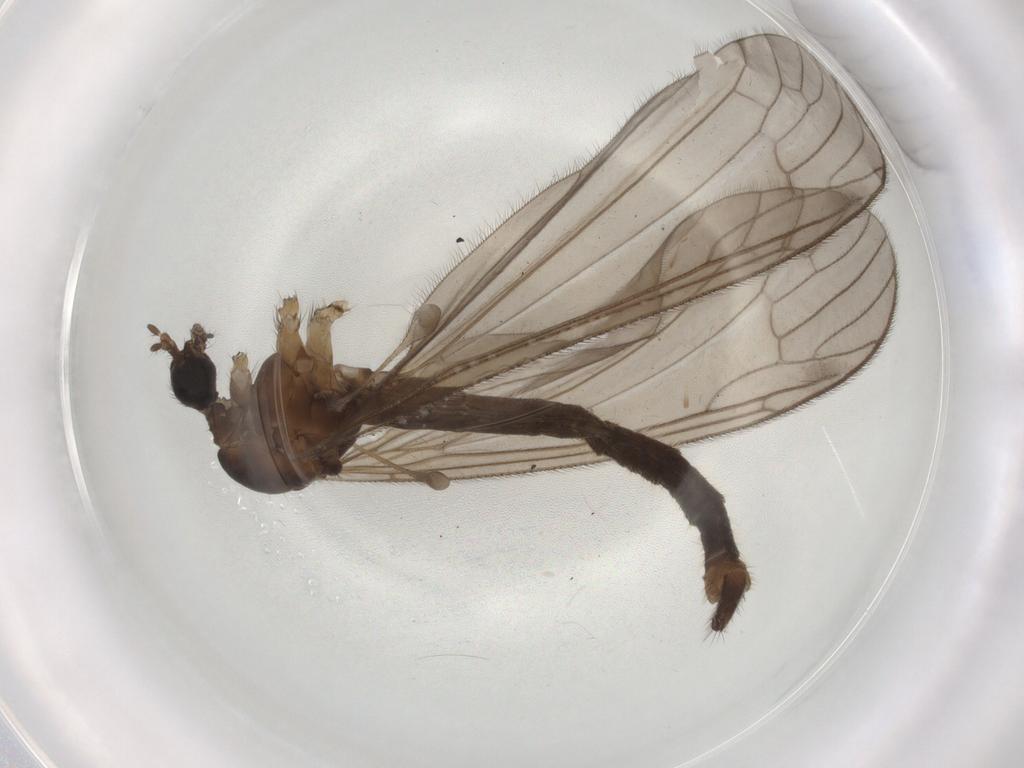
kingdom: Animalia
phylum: Arthropoda
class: Insecta
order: Diptera
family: Limoniidae
